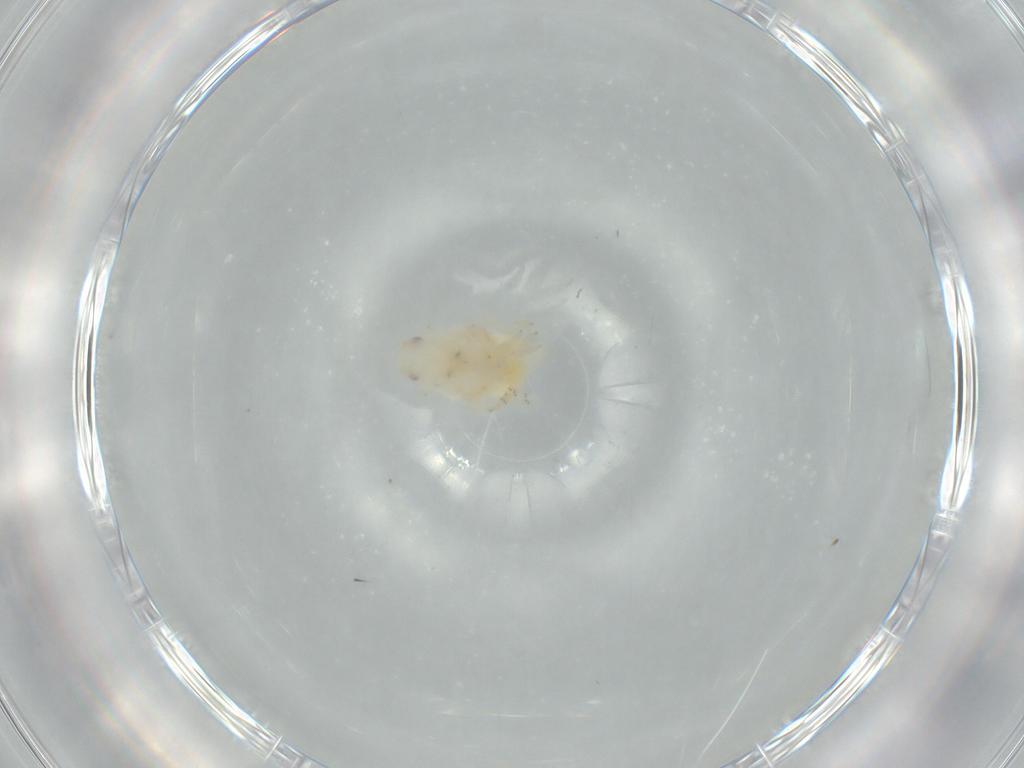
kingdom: Animalia
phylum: Arthropoda
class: Insecta
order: Hemiptera
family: Flatidae
